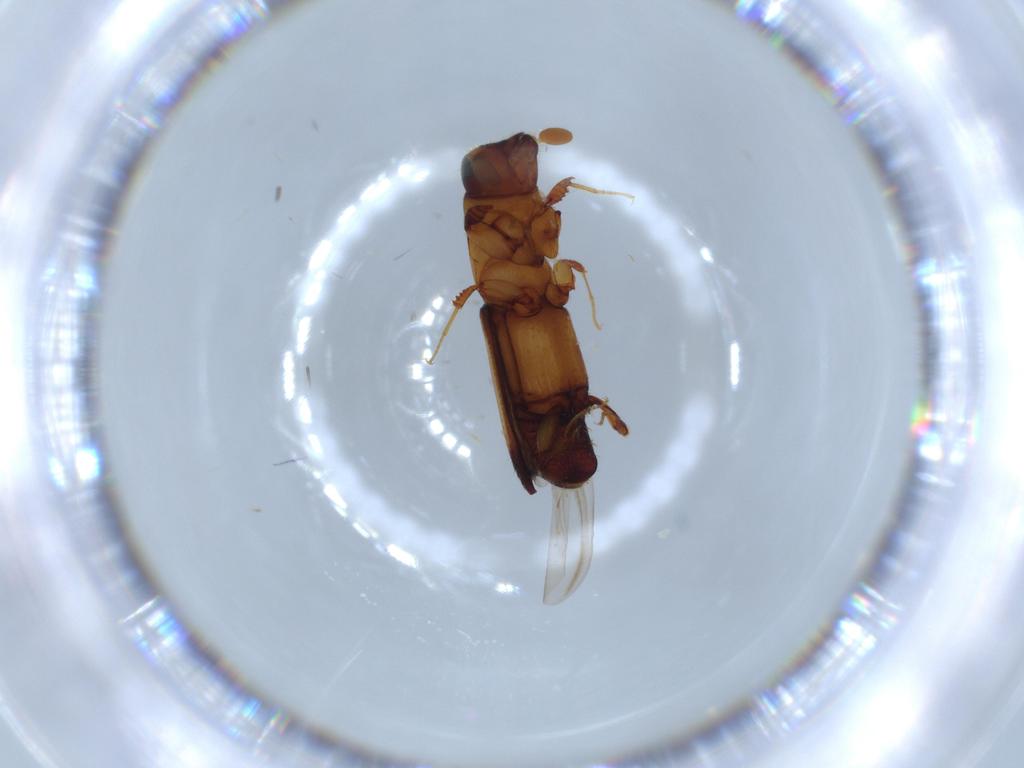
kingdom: Animalia
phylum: Arthropoda
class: Insecta
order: Coleoptera
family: Curculionidae
